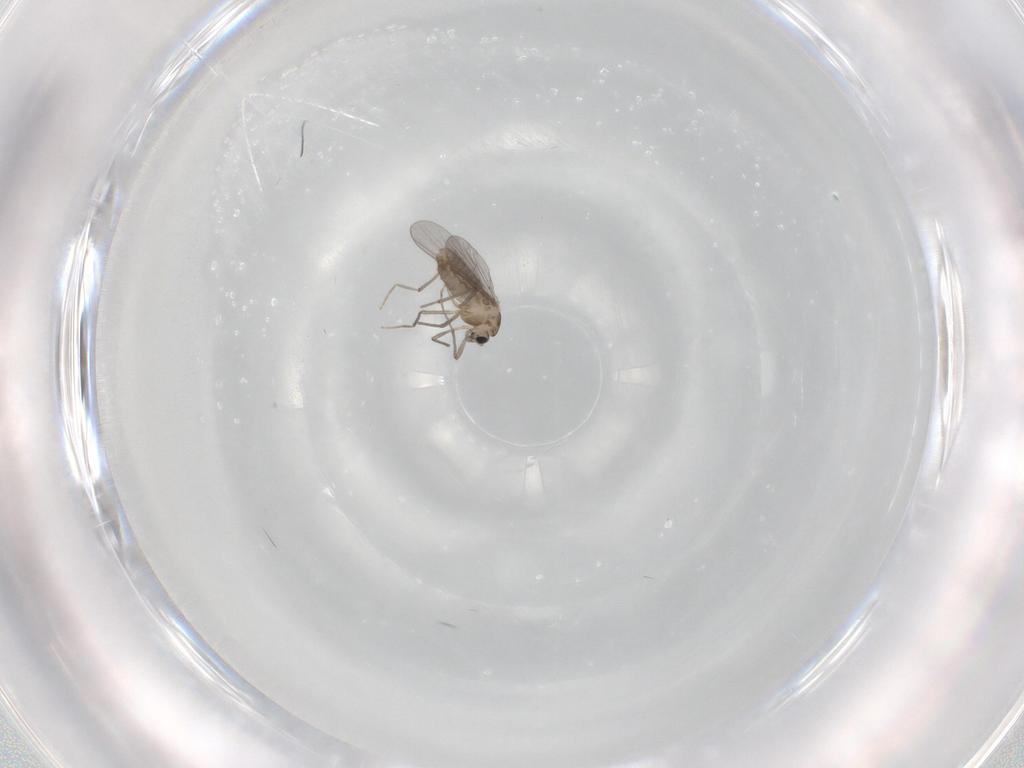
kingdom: Animalia
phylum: Arthropoda
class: Insecta
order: Diptera
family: Chironomidae
